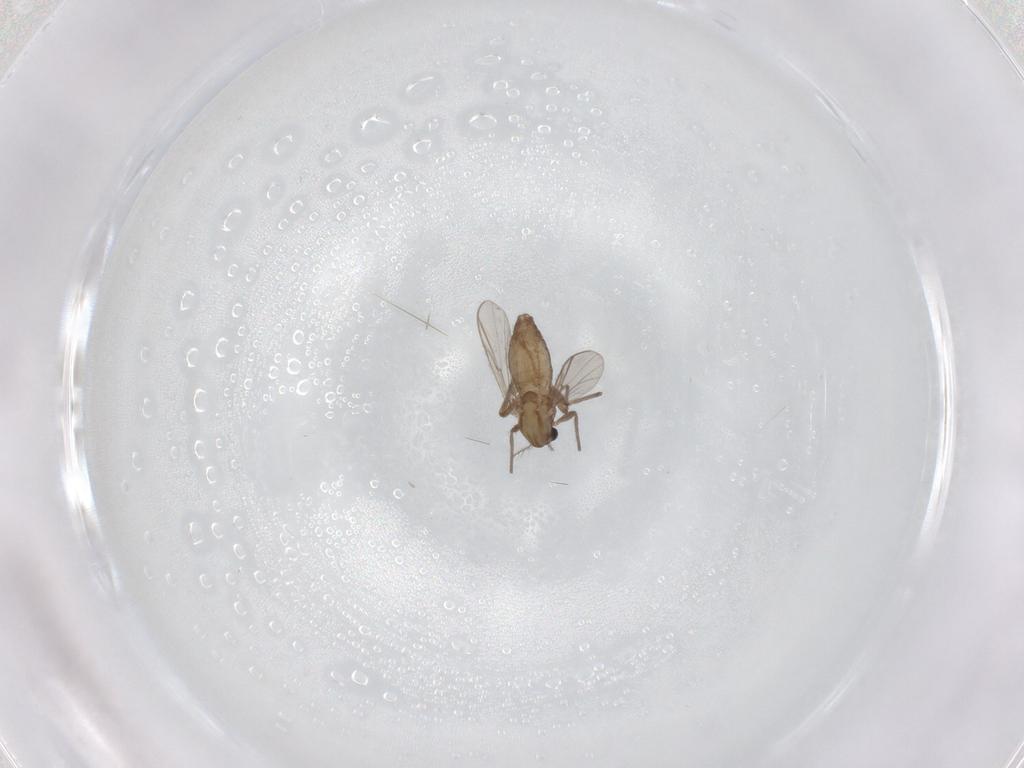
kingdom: Animalia
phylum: Arthropoda
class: Insecta
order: Diptera
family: Chironomidae
